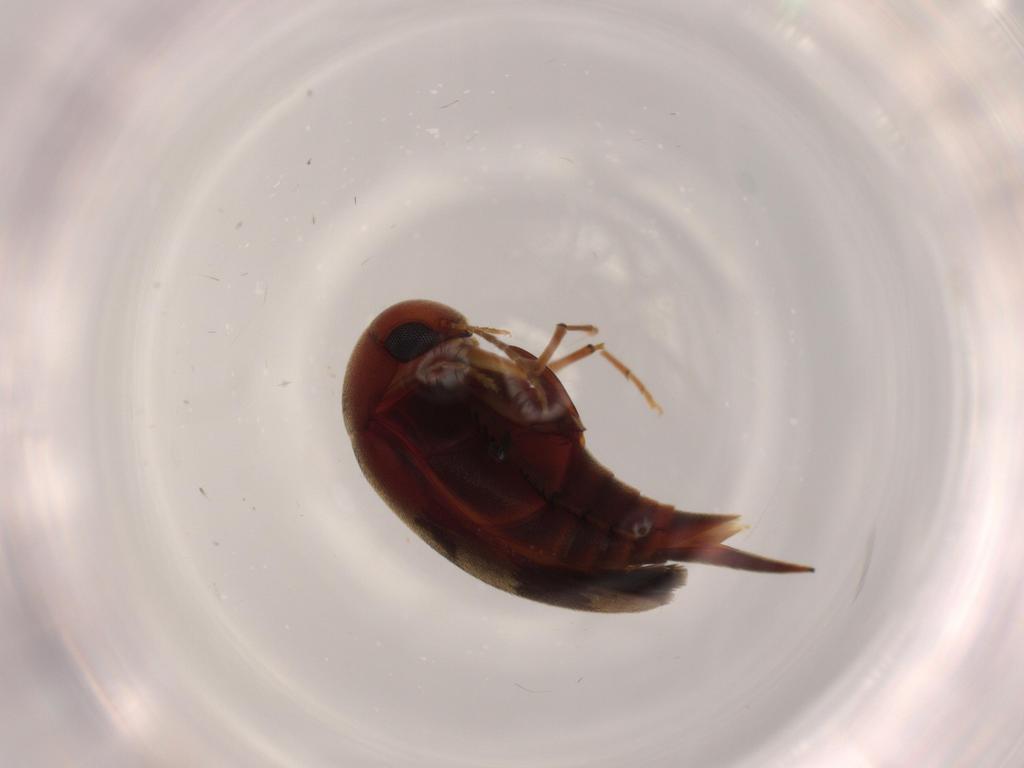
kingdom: Animalia
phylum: Arthropoda
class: Insecta
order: Coleoptera
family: Curculionidae
